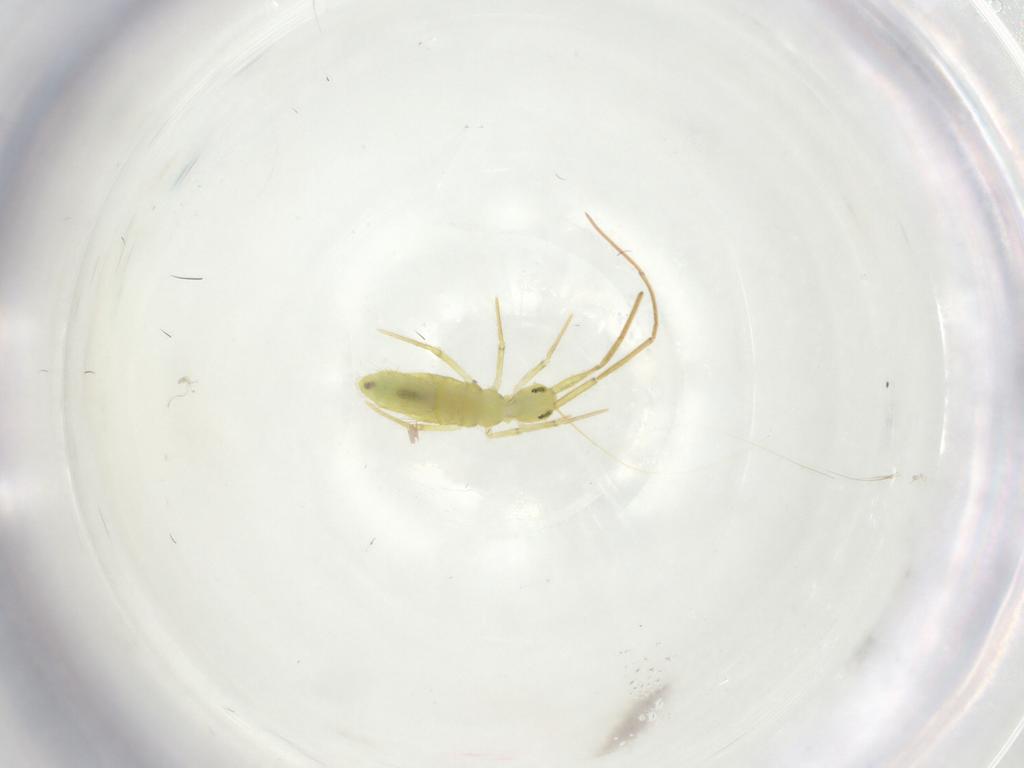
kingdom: Animalia
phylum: Arthropoda
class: Collembola
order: Entomobryomorpha
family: Entomobryidae
